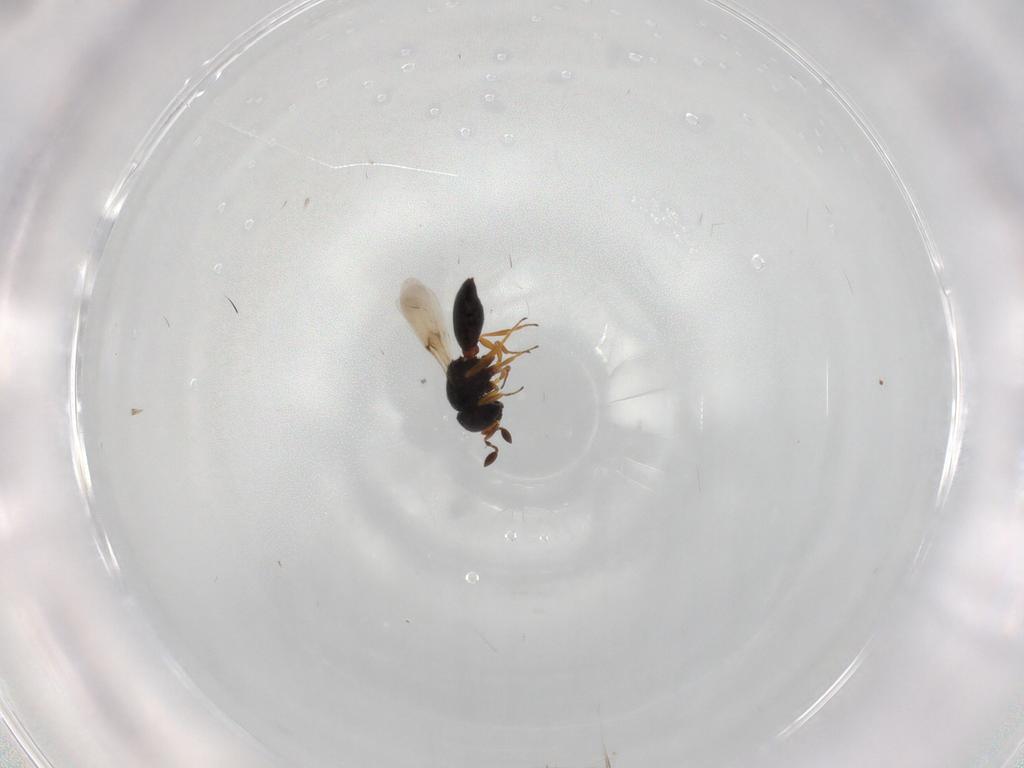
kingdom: Animalia
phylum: Arthropoda
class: Insecta
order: Hymenoptera
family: Scelionidae
